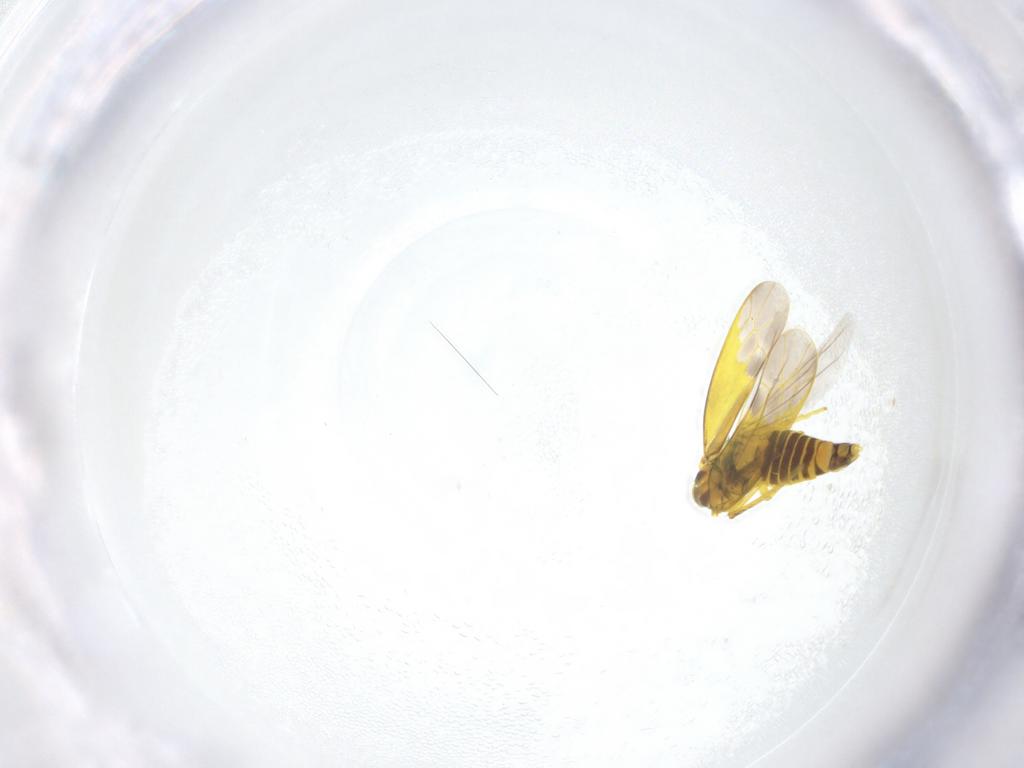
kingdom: Animalia
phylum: Arthropoda
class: Insecta
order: Hemiptera
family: Cicadellidae
